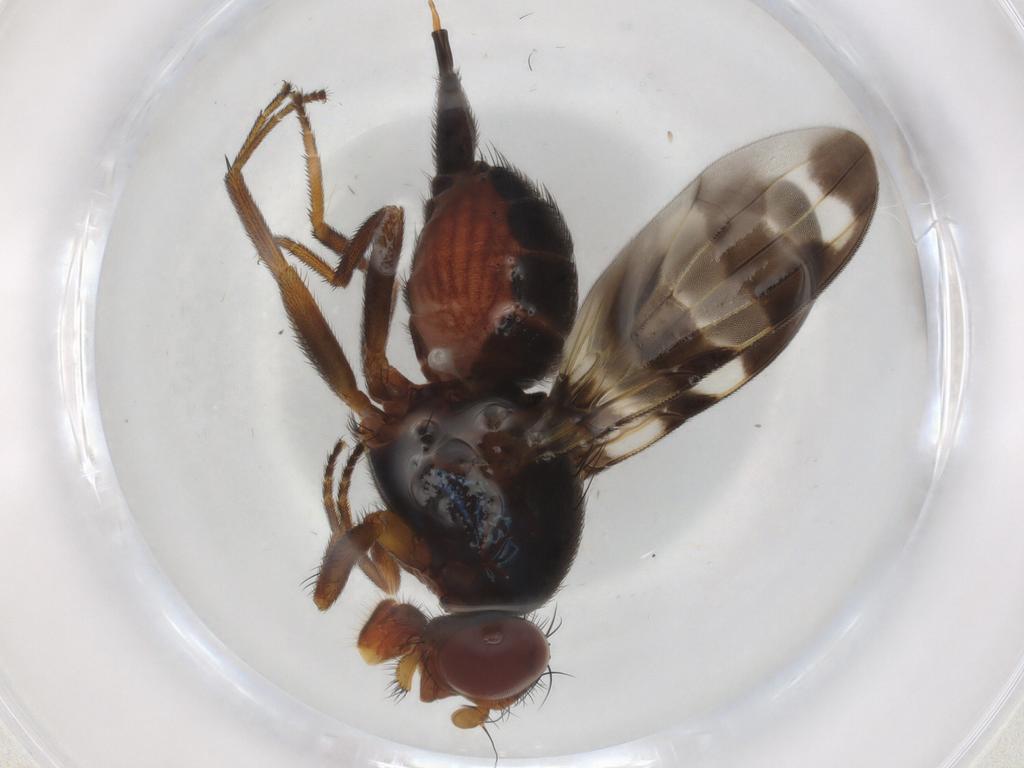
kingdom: Animalia
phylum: Arthropoda
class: Insecta
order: Diptera
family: Ulidiidae
